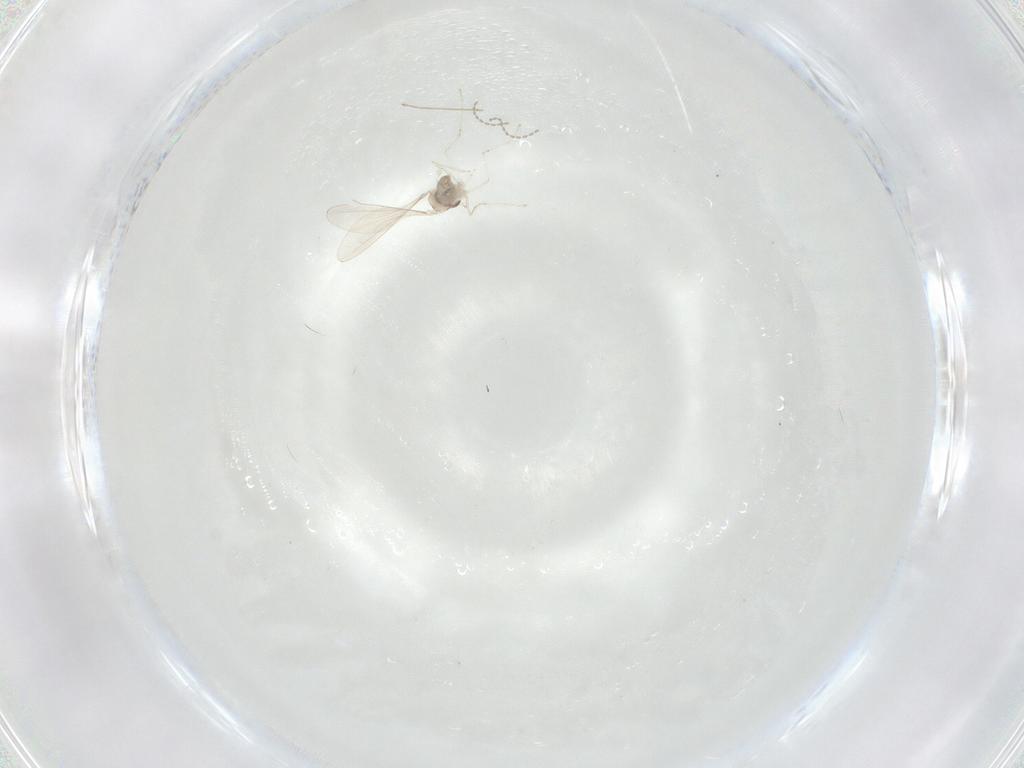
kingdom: Animalia
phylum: Arthropoda
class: Insecta
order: Diptera
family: Cecidomyiidae
